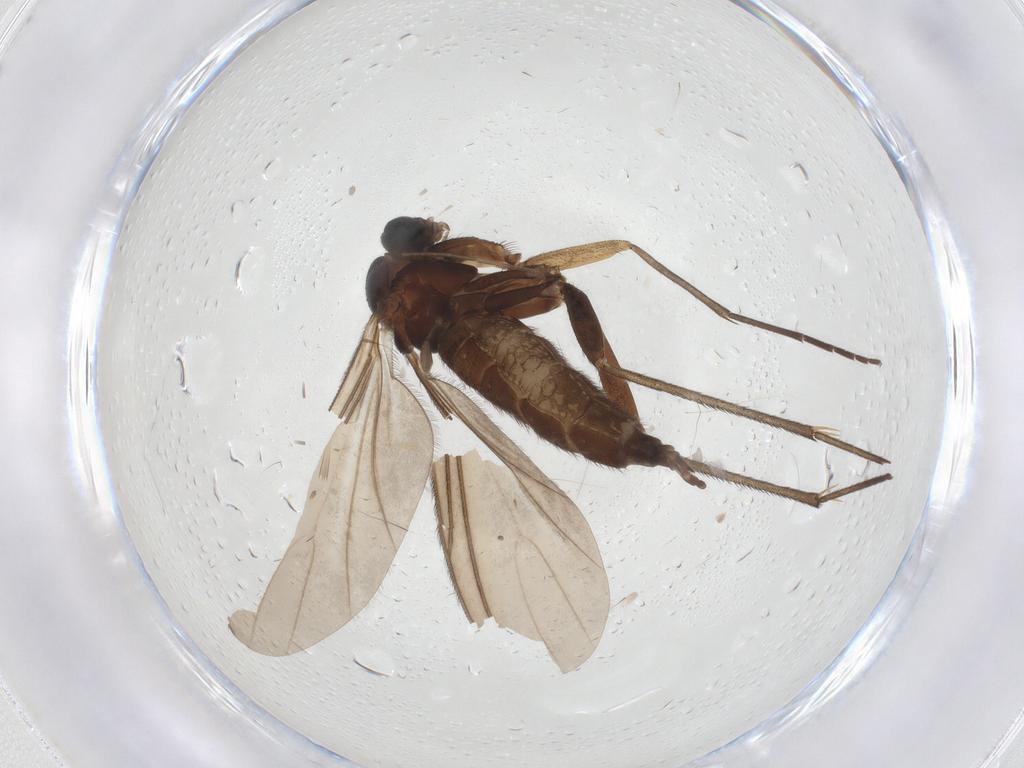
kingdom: Animalia
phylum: Arthropoda
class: Insecta
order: Diptera
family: Sciaridae
